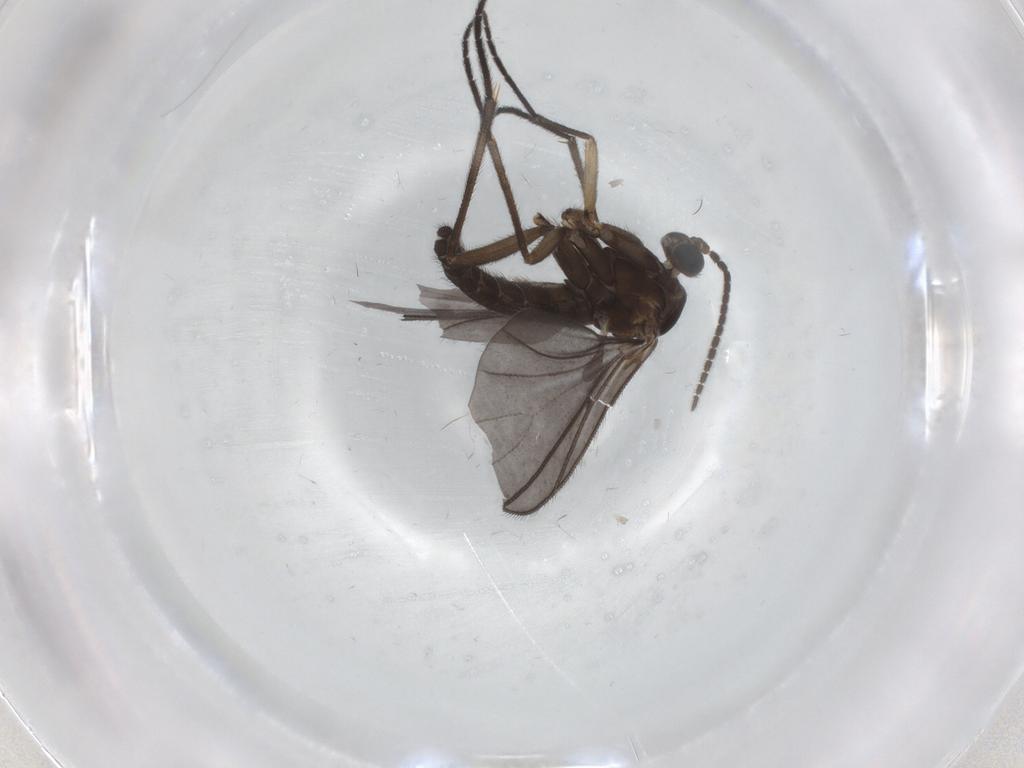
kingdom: Animalia
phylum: Arthropoda
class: Insecta
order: Diptera
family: Sciaridae
